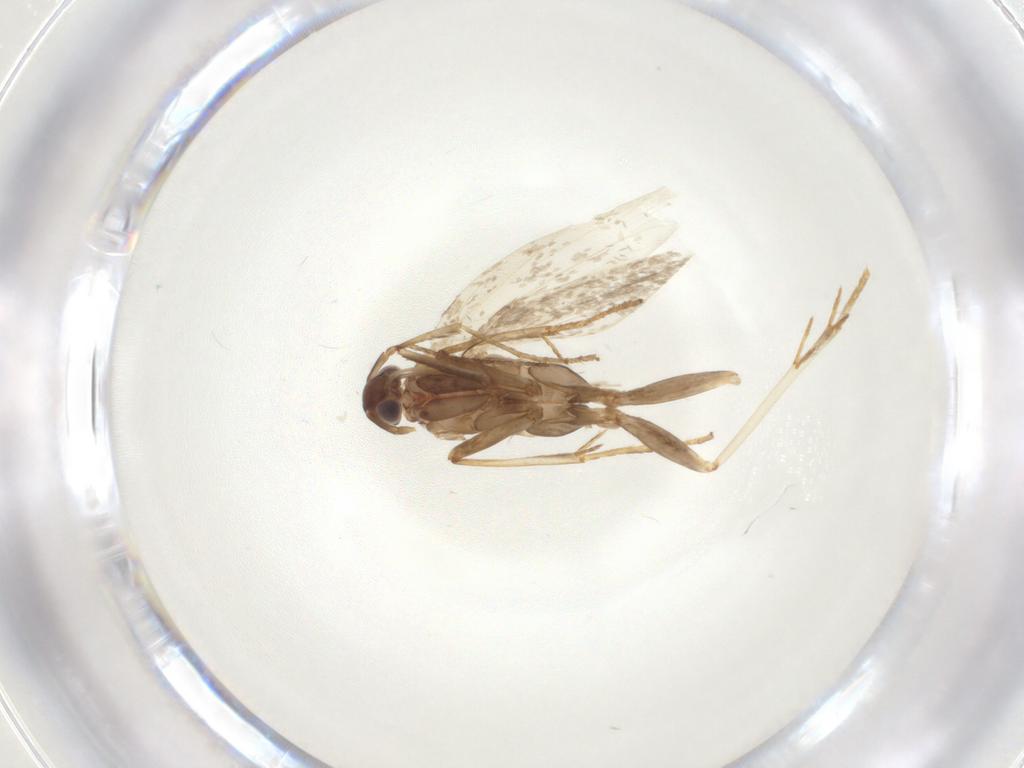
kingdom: Animalia
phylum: Arthropoda
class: Insecta
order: Lepidoptera
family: Erebidae
